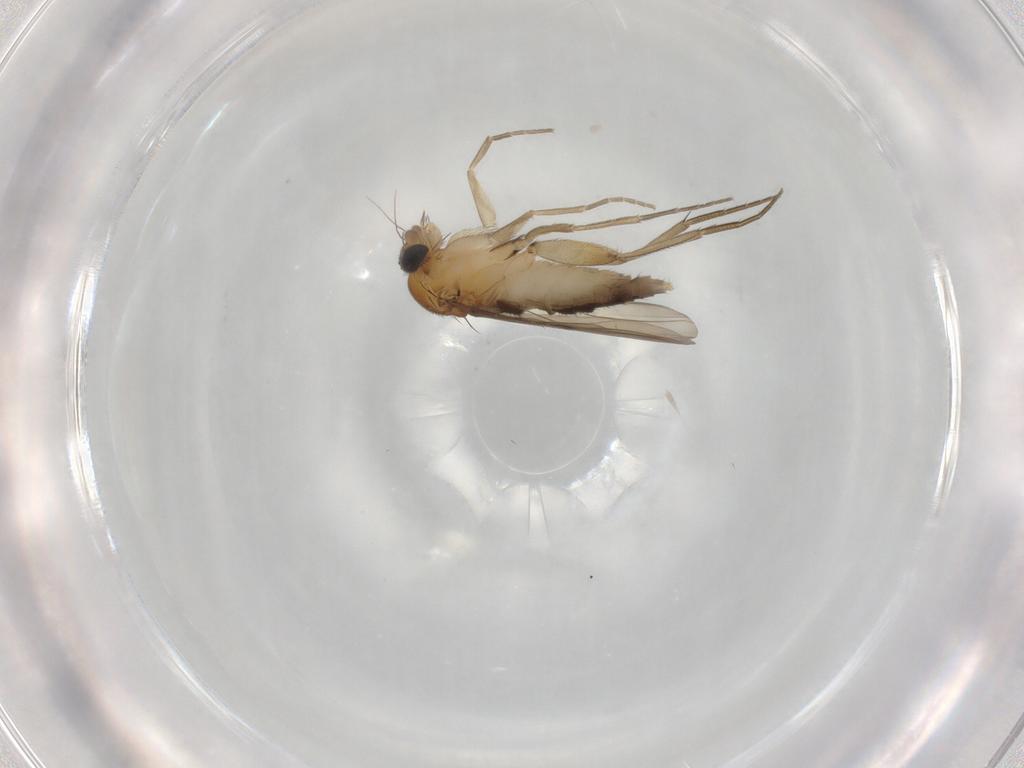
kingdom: Animalia
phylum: Arthropoda
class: Insecta
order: Diptera
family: Phoridae
